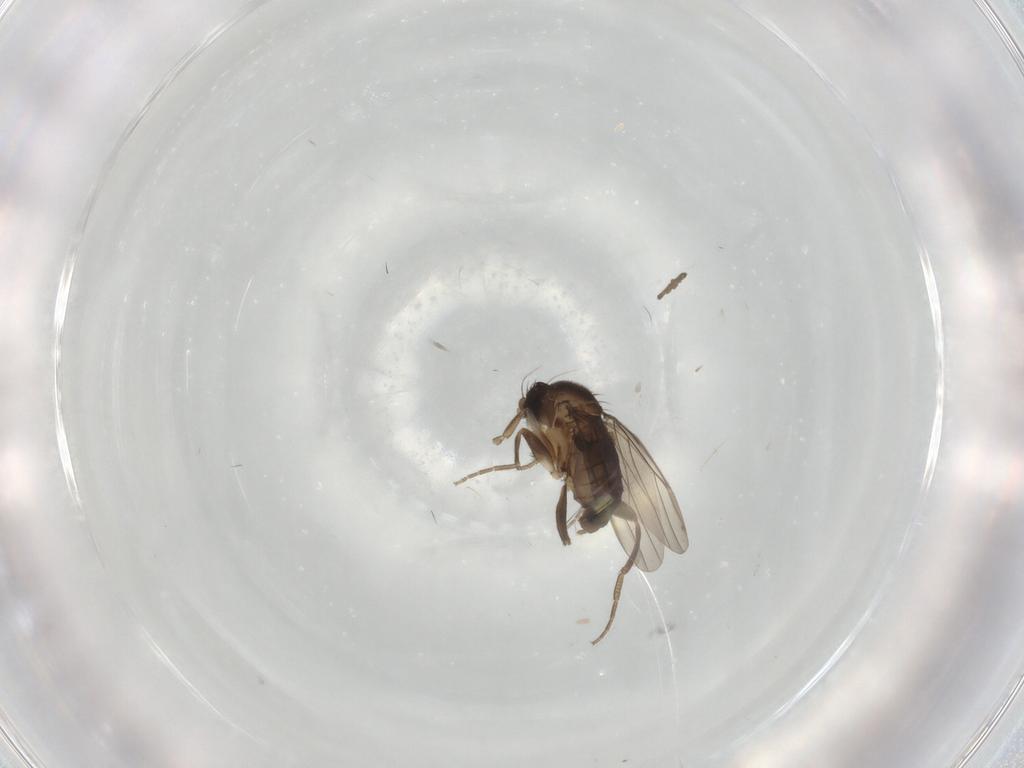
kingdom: Animalia
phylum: Arthropoda
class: Insecta
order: Diptera
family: Phoridae
